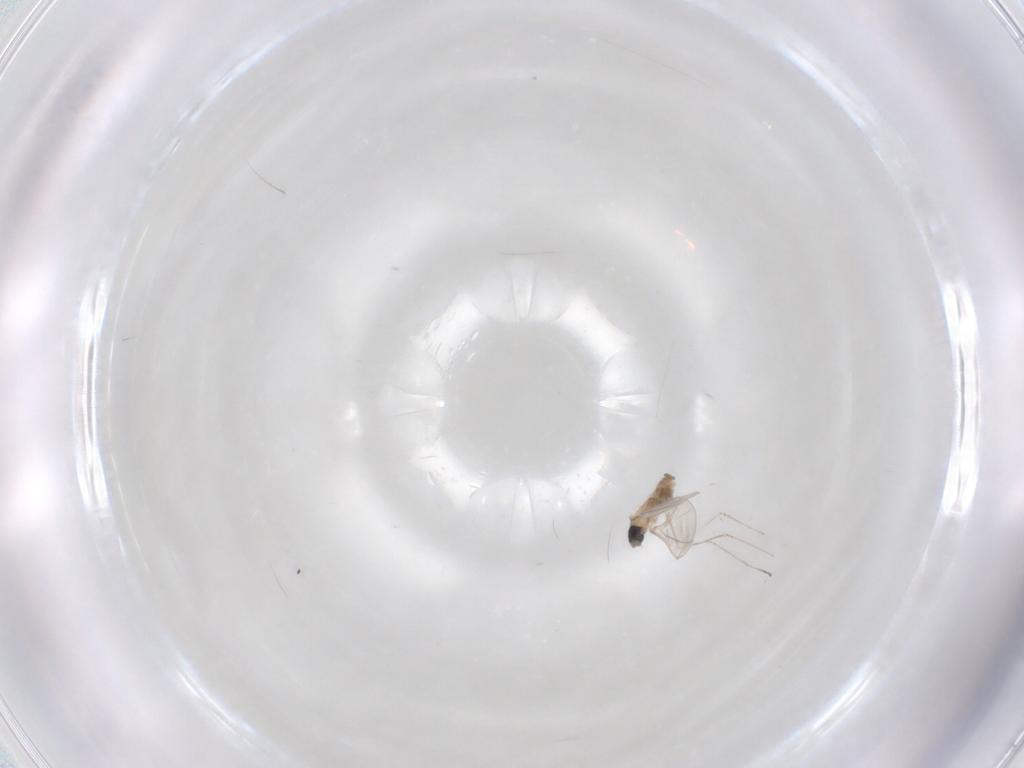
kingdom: Animalia
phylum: Arthropoda
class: Insecta
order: Diptera
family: Cecidomyiidae
